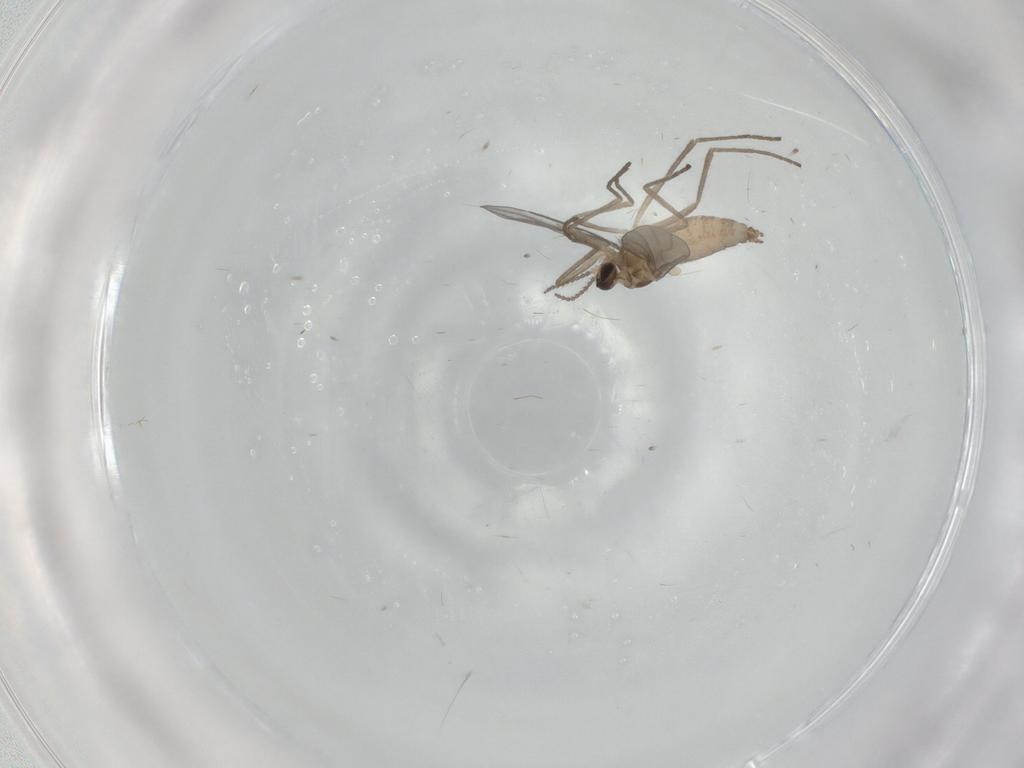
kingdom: Animalia
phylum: Arthropoda
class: Insecta
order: Diptera
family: Cecidomyiidae
